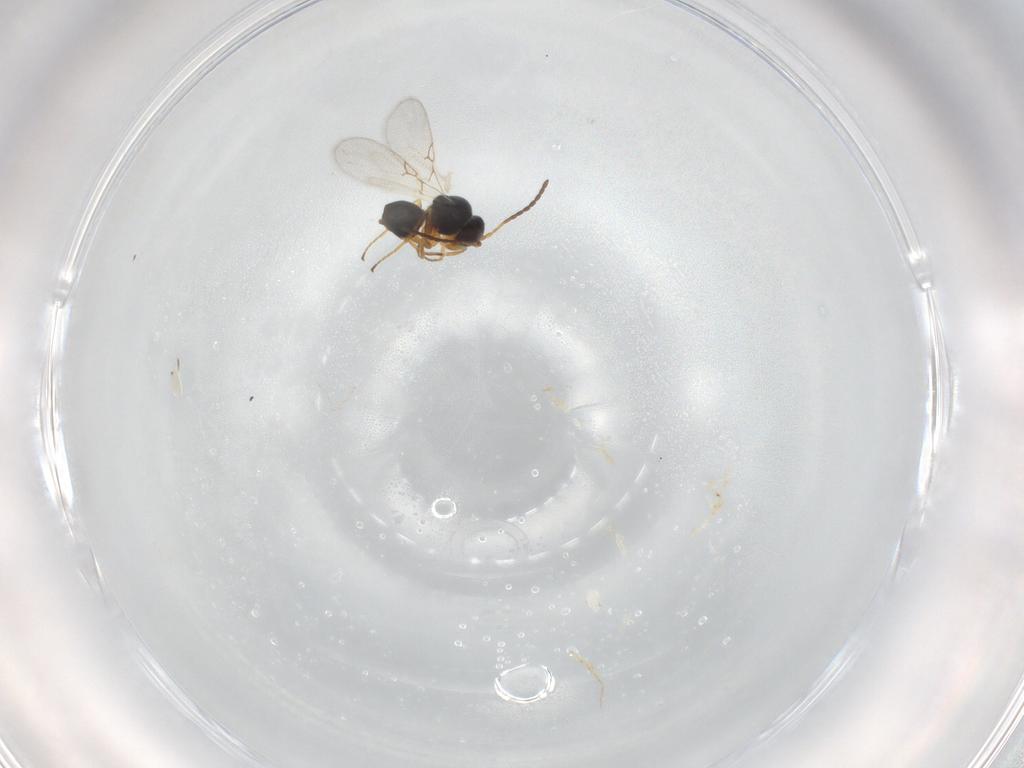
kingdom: Animalia
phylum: Arthropoda
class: Insecta
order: Hymenoptera
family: Figitidae
